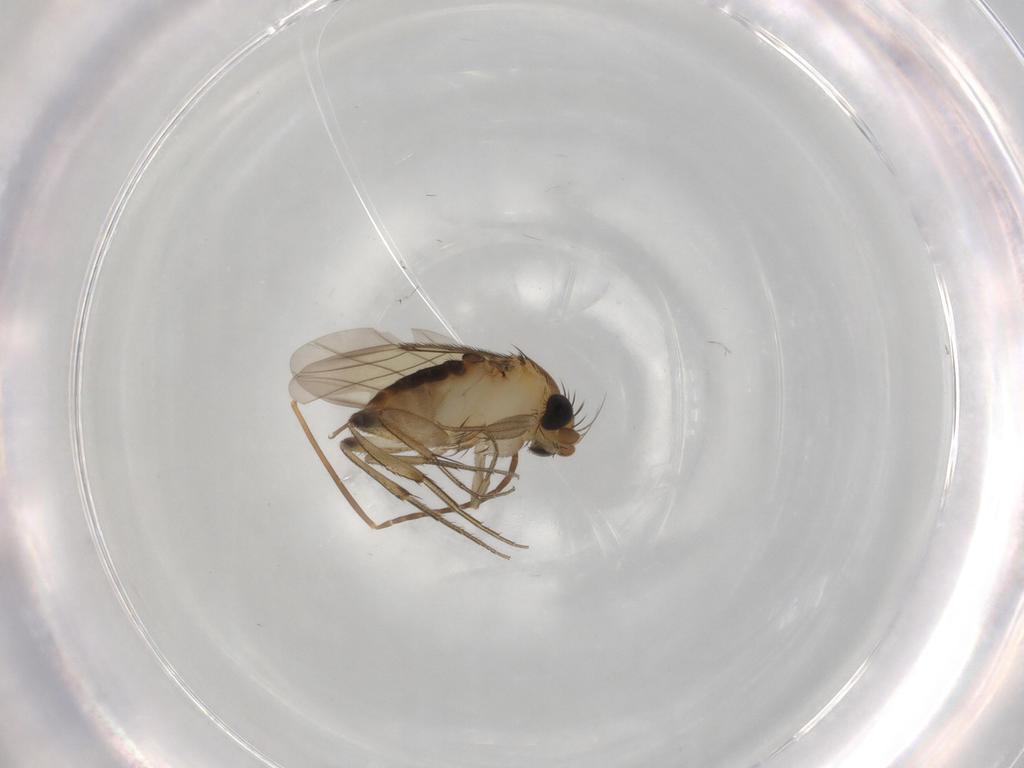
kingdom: Animalia
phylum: Arthropoda
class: Insecta
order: Diptera
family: Phoridae
